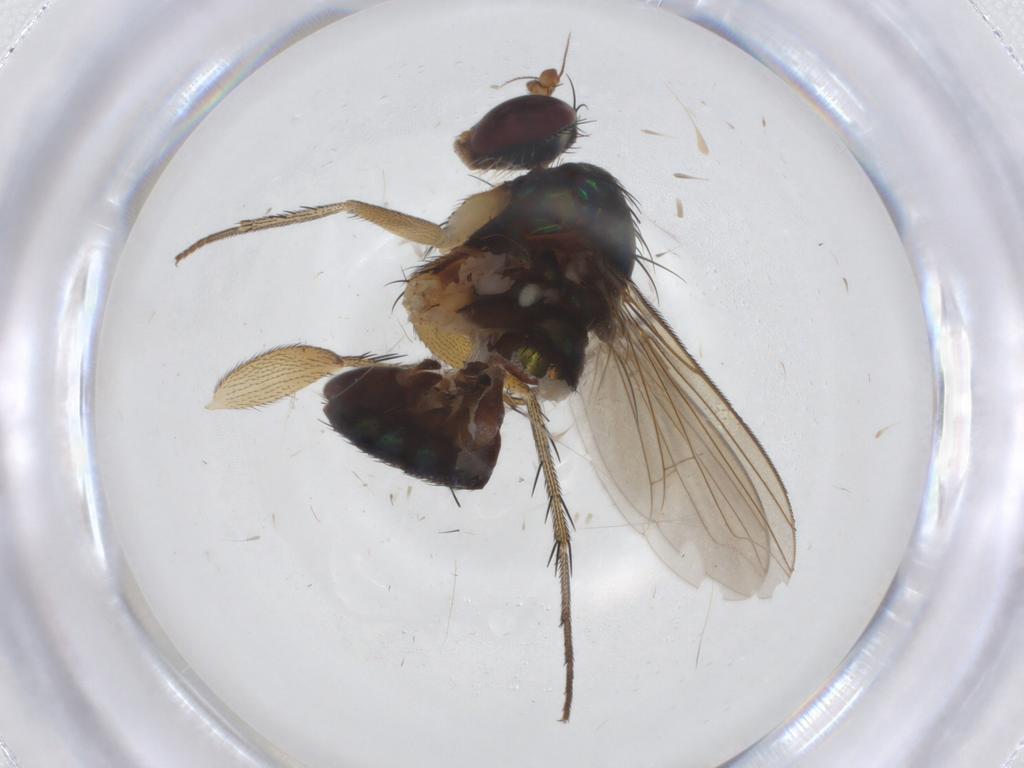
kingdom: Animalia
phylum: Arthropoda
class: Insecta
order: Diptera
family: Dolichopodidae
